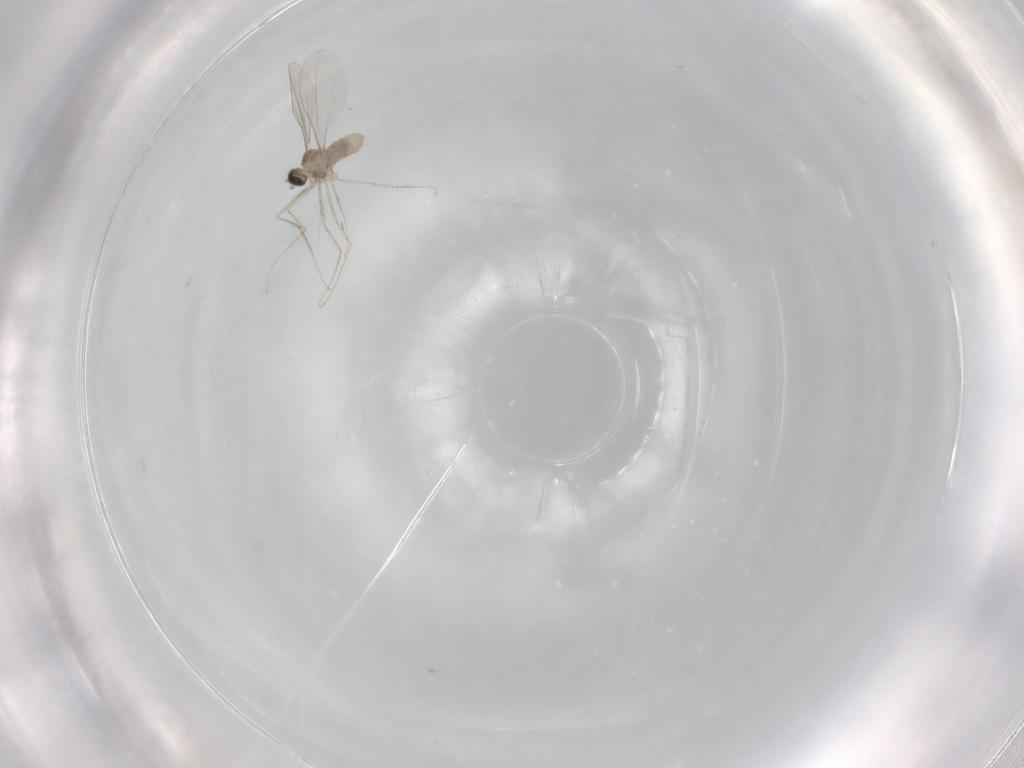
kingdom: Animalia
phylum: Arthropoda
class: Insecta
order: Diptera
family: Cecidomyiidae
